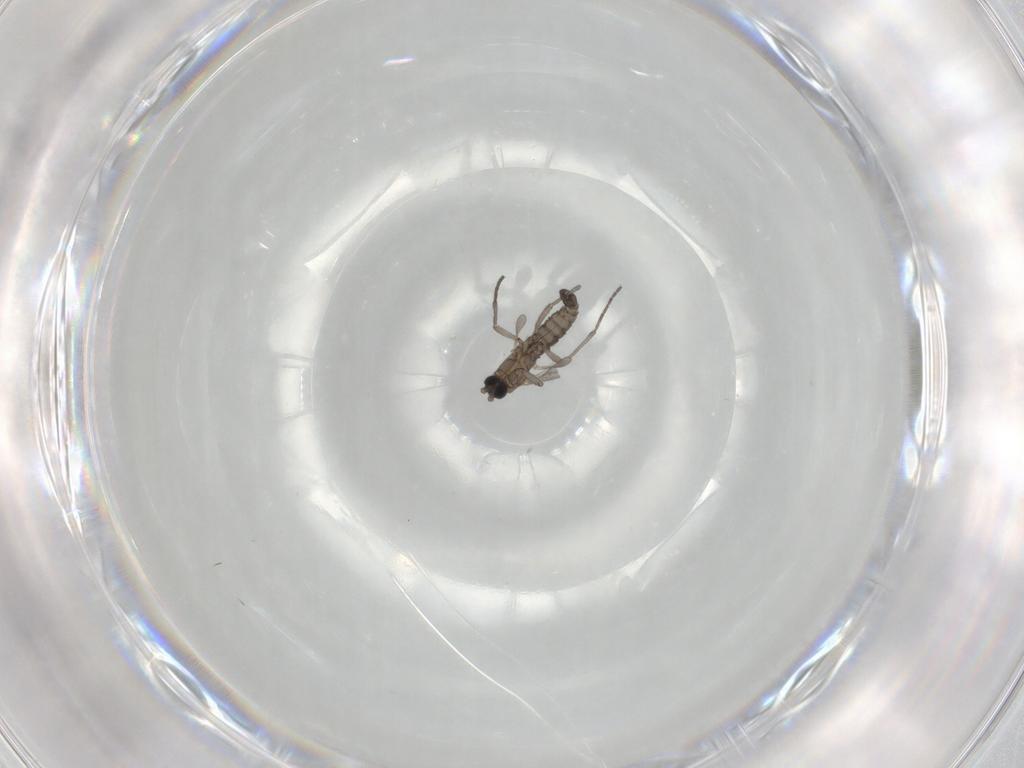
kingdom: Animalia
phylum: Arthropoda
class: Insecta
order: Diptera
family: Sciaridae
